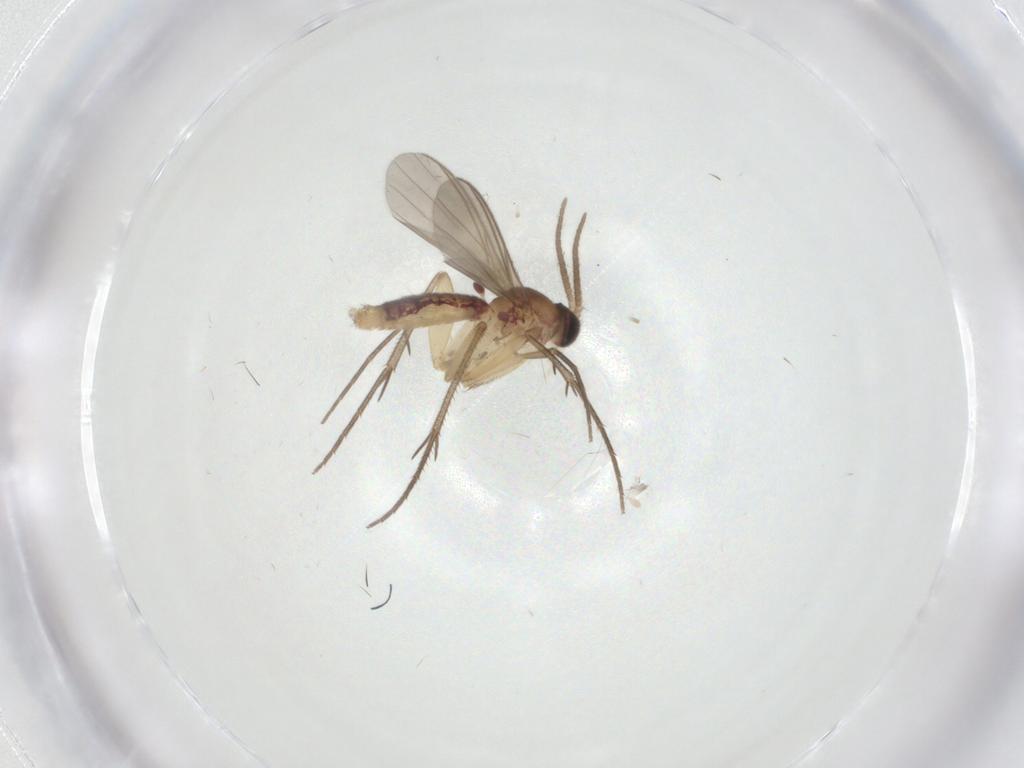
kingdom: Animalia
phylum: Arthropoda
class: Insecta
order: Diptera
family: Mycetophilidae
